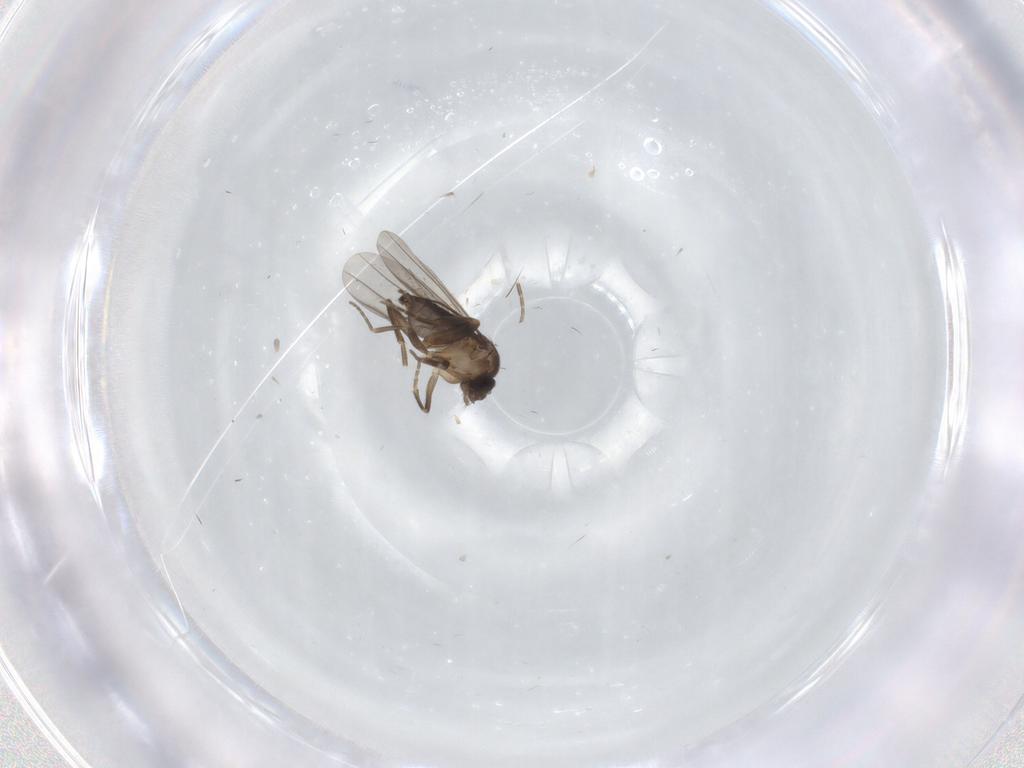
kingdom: Animalia
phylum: Arthropoda
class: Insecta
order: Diptera
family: Phoridae
